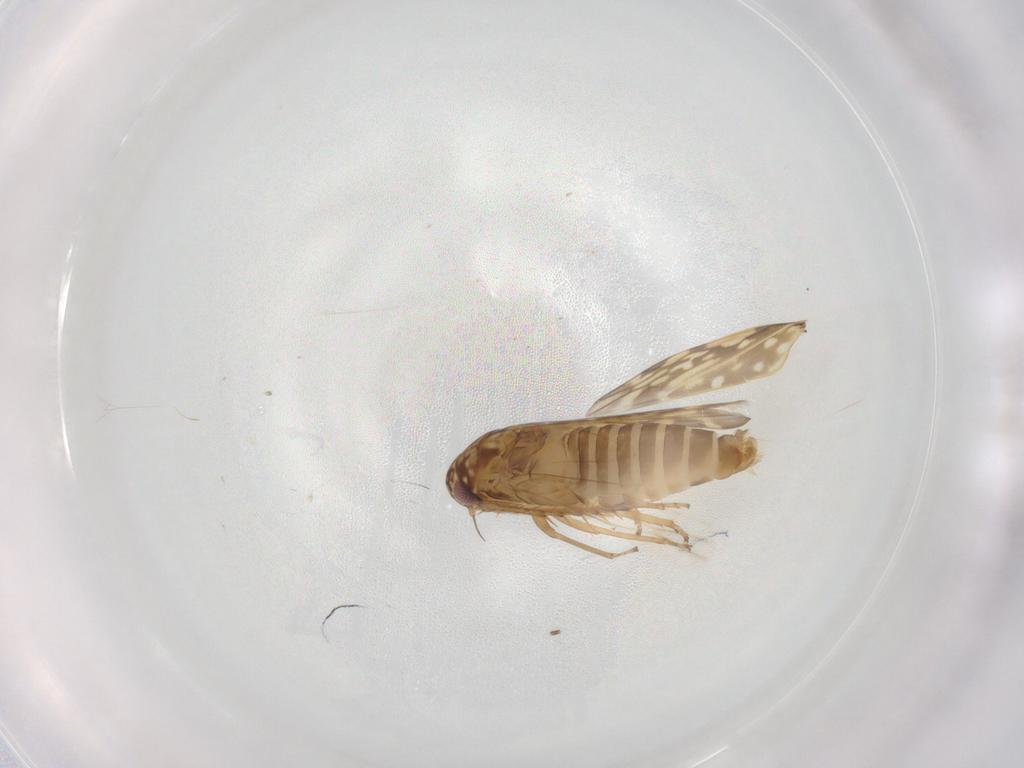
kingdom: Animalia
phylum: Arthropoda
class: Insecta
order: Hemiptera
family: Cicadellidae
